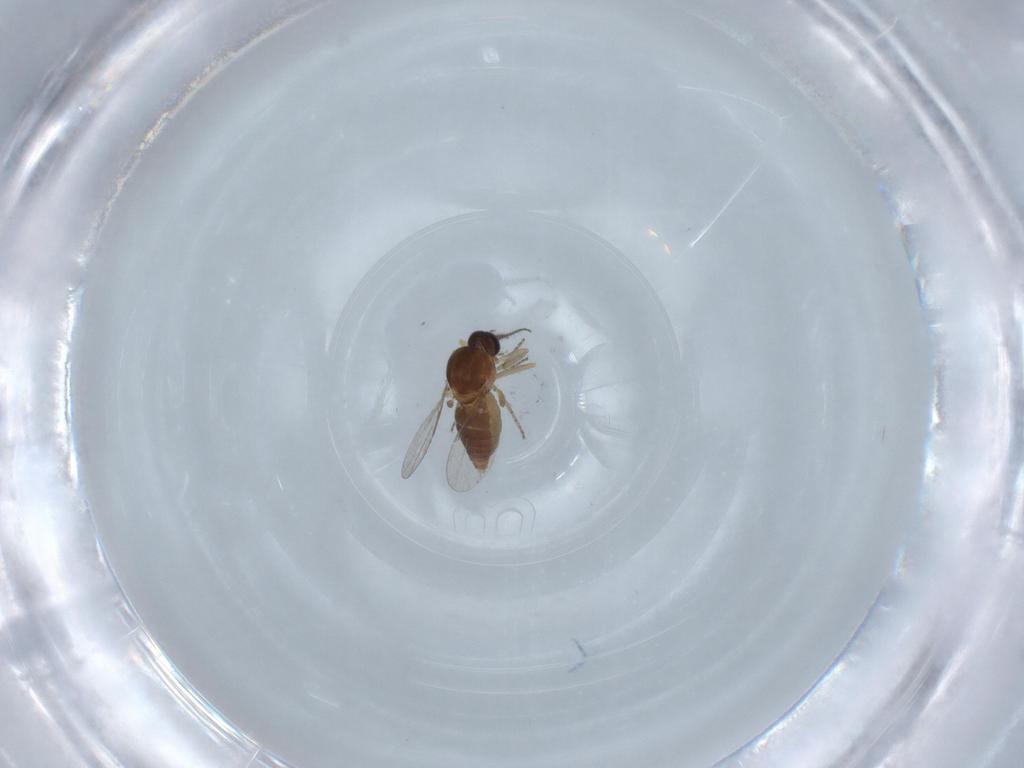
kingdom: Animalia
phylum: Arthropoda
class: Insecta
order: Diptera
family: Ceratopogonidae
